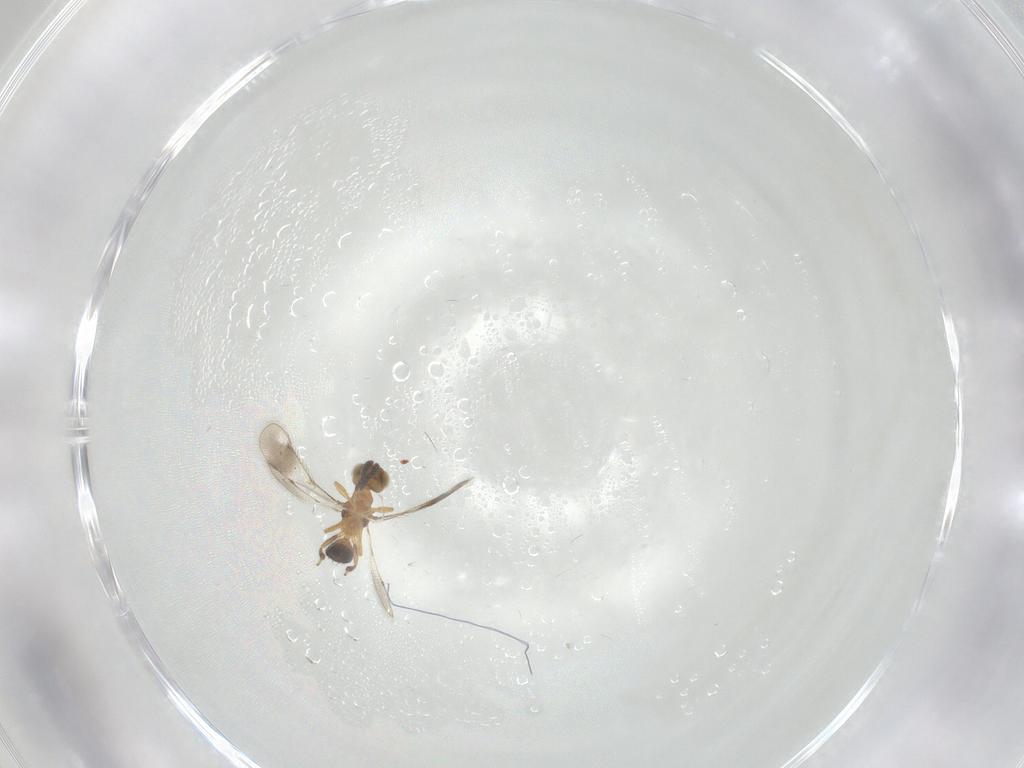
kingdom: Animalia
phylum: Arthropoda
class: Insecta
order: Hymenoptera
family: Pteromalidae
